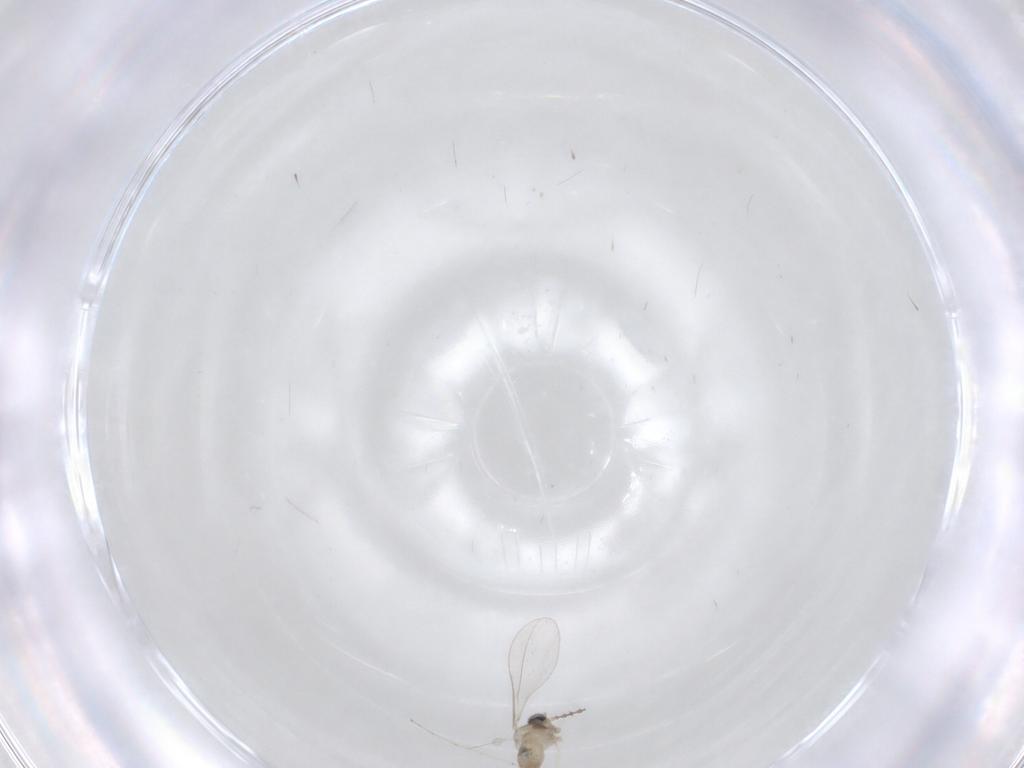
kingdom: Animalia
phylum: Arthropoda
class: Insecta
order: Diptera
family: Cecidomyiidae
